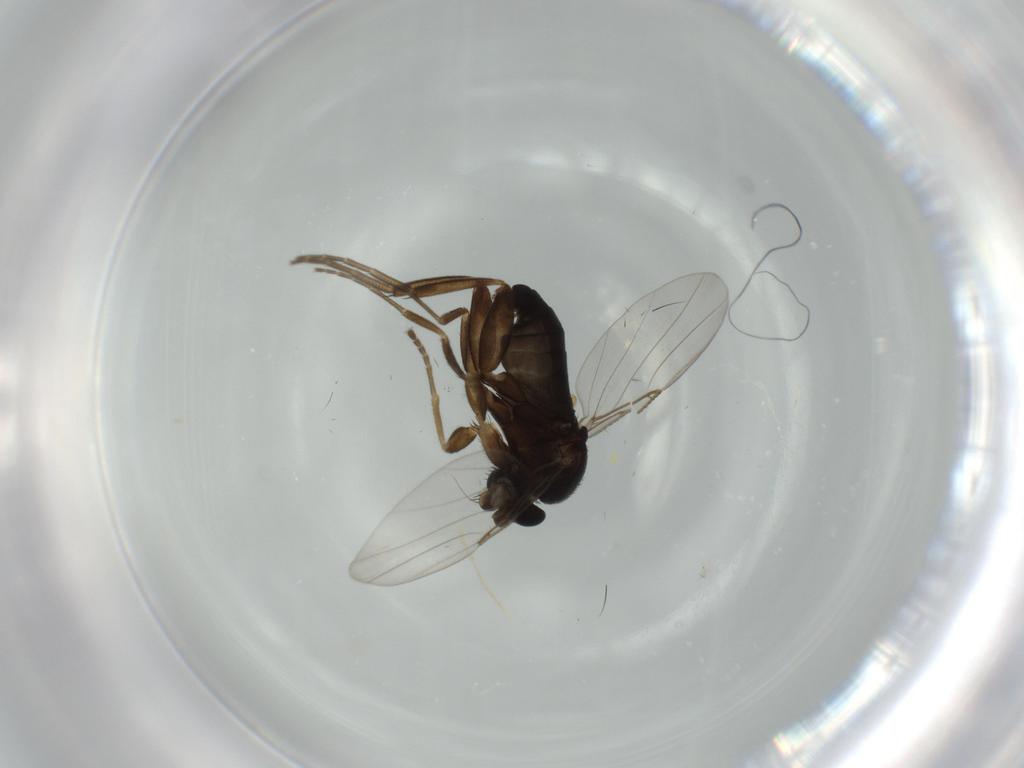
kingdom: Animalia
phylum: Arthropoda
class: Insecta
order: Diptera
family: Phoridae
